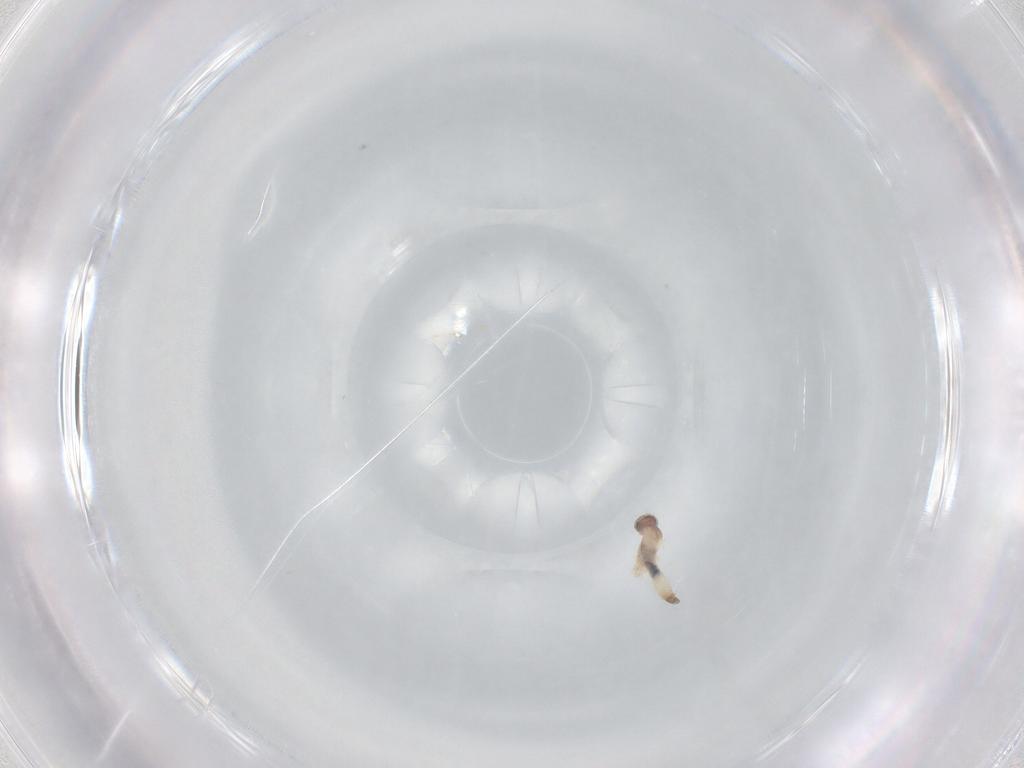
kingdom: Animalia
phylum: Arthropoda
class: Insecta
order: Diptera
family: Cecidomyiidae
